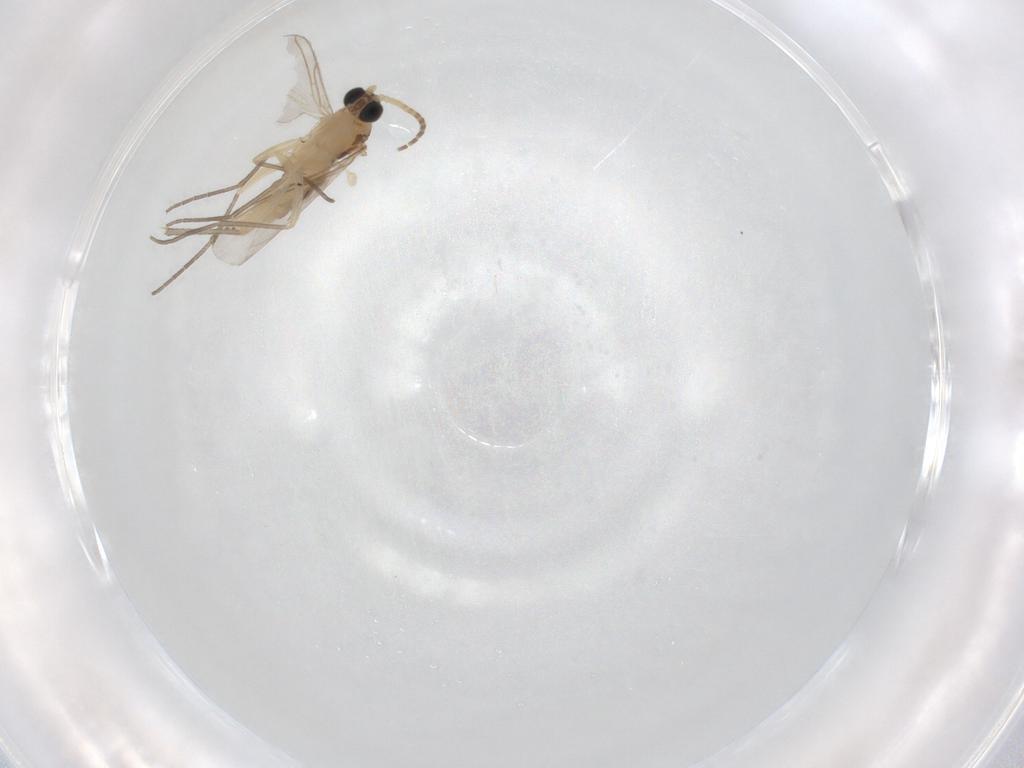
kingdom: Animalia
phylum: Arthropoda
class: Insecta
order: Diptera
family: Sciaridae
